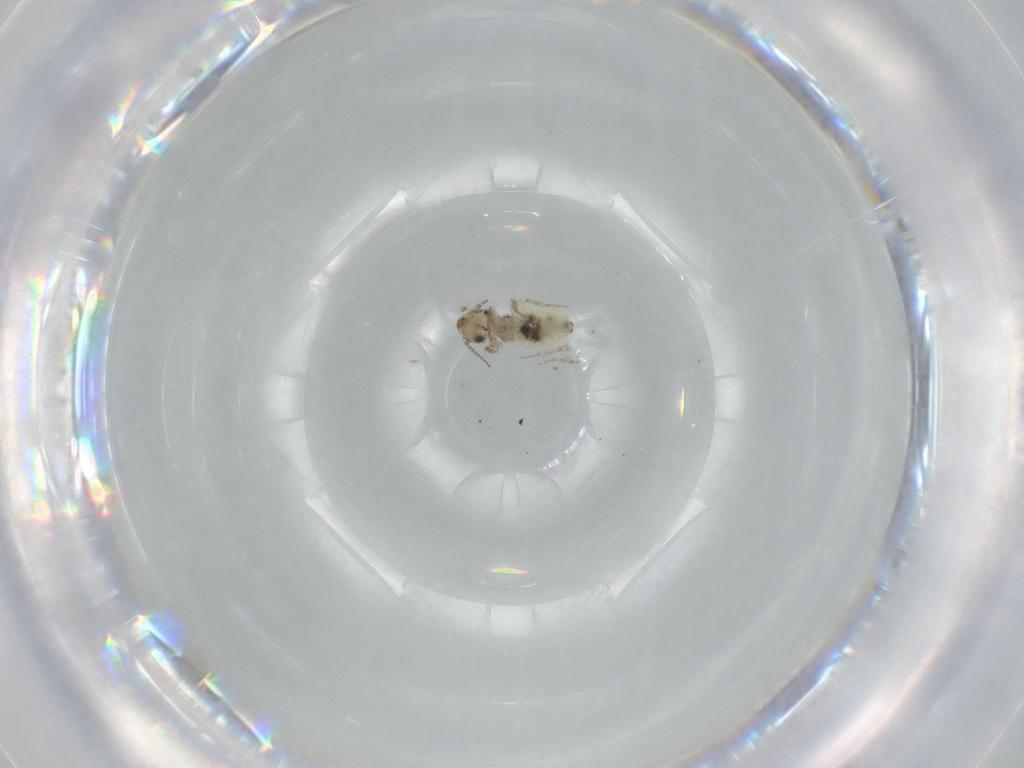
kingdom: Animalia
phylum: Arthropoda
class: Insecta
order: Psocodea
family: Lepidopsocidae
